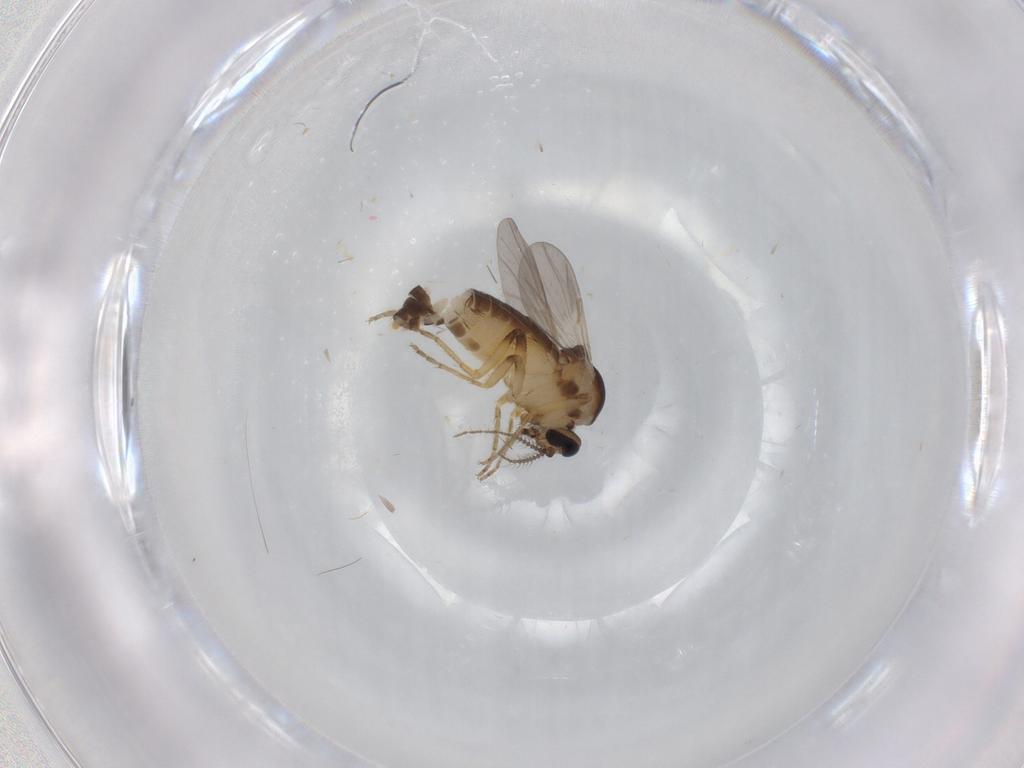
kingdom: Animalia
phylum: Arthropoda
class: Insecta
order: Diptera
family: Ceratopogonidae
